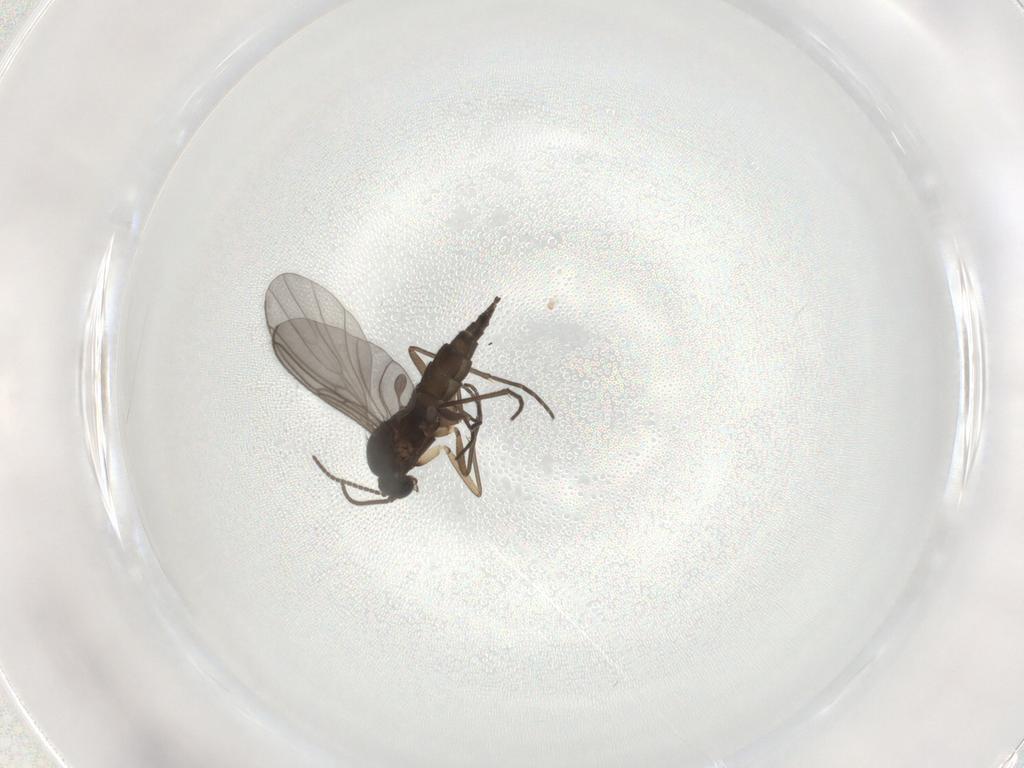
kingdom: Animalia
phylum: Arthropoda
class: Insecta
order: Diptera
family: Sciaridae
